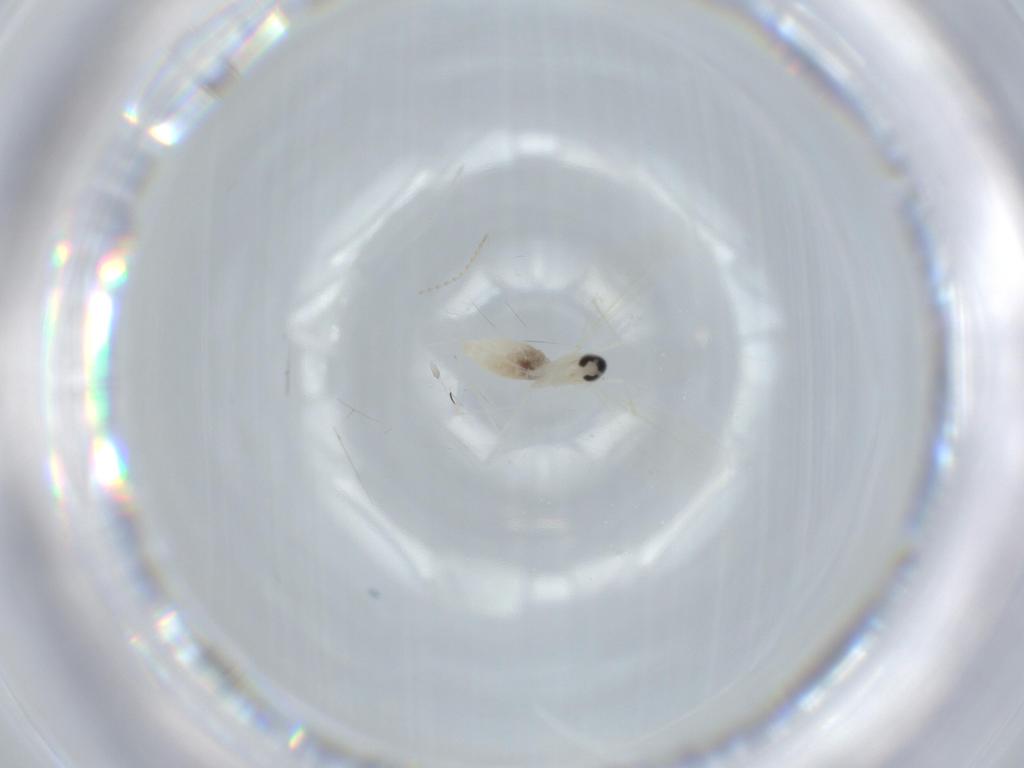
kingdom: Animalia
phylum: Arthropoda
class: Insecta
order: Diptera
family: Cecidomyiidae
